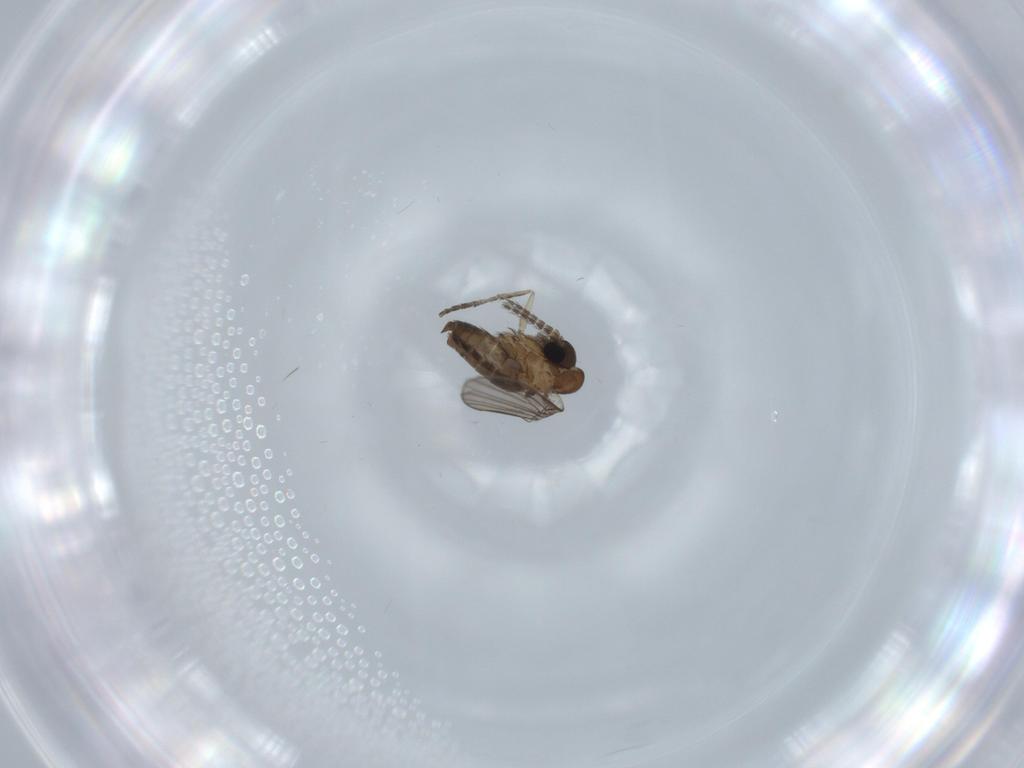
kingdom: Animalia
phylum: Arthropoda
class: Insecta
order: Diptera
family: Psychodidae
